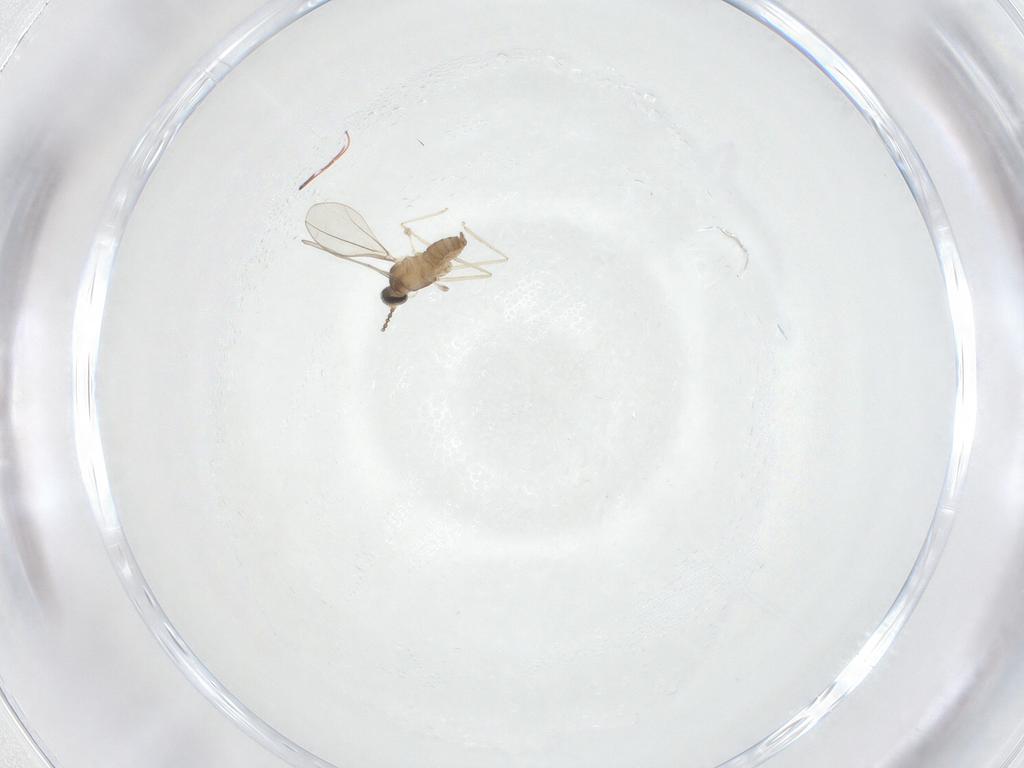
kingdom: Animalia
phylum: Arthropoda
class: Insecta
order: Diptera
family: Cecidomyiidae
